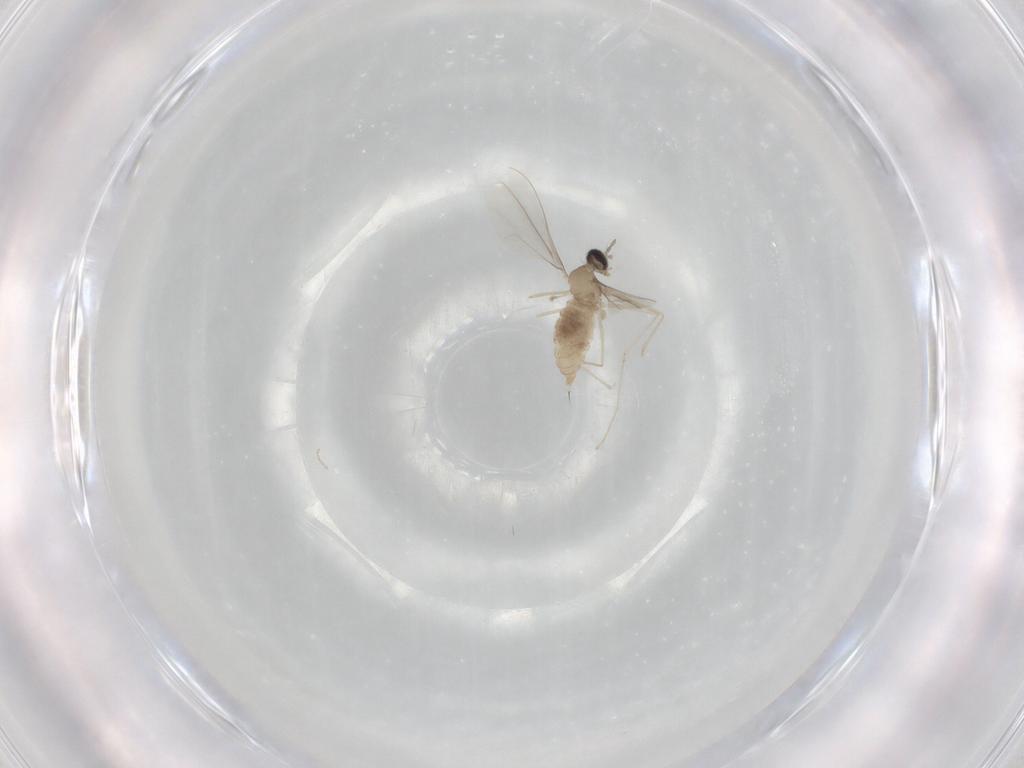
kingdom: Animalia
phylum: Arthropoda
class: Insecta
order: Diptera
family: Cecidomyiidae
